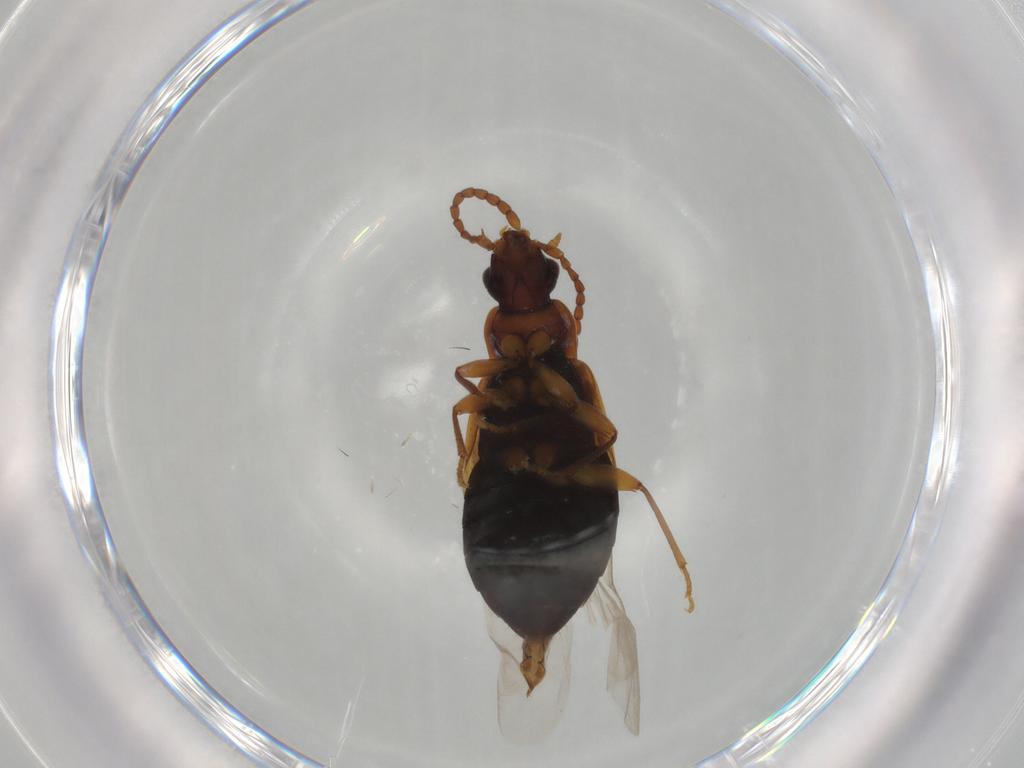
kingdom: Animalia
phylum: Arthropoda
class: Insecta
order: Coleoptera
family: Staphylinidae
